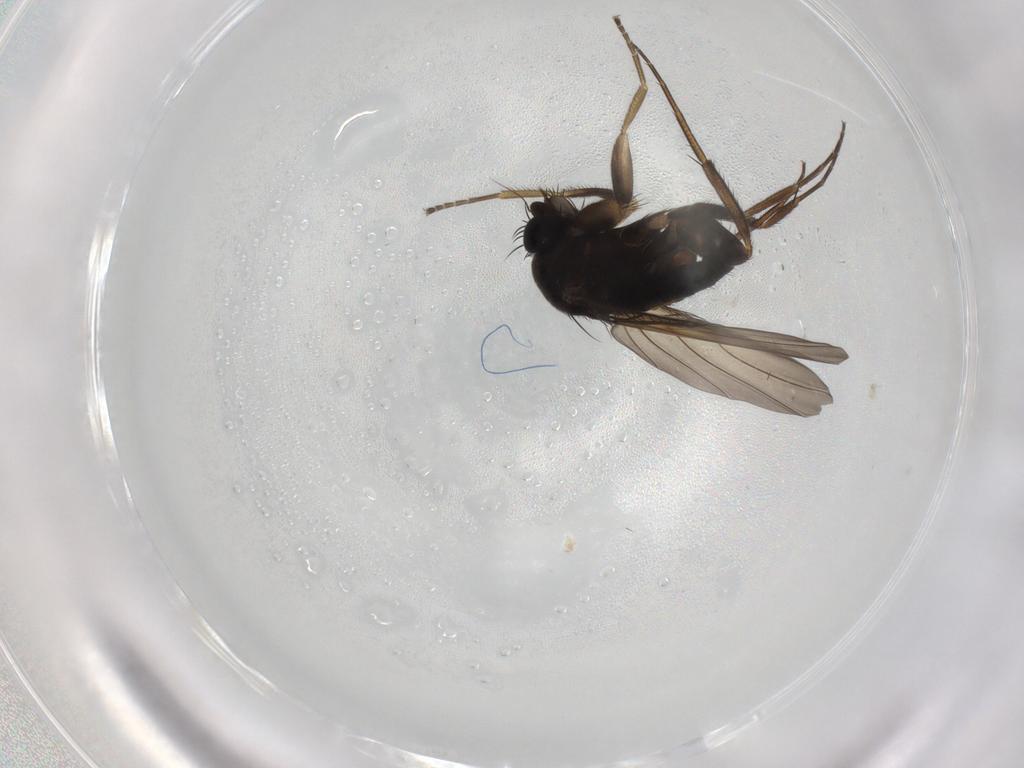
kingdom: Animalia
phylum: Arthropoda
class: Insecta
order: Diptera
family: Phoridae
